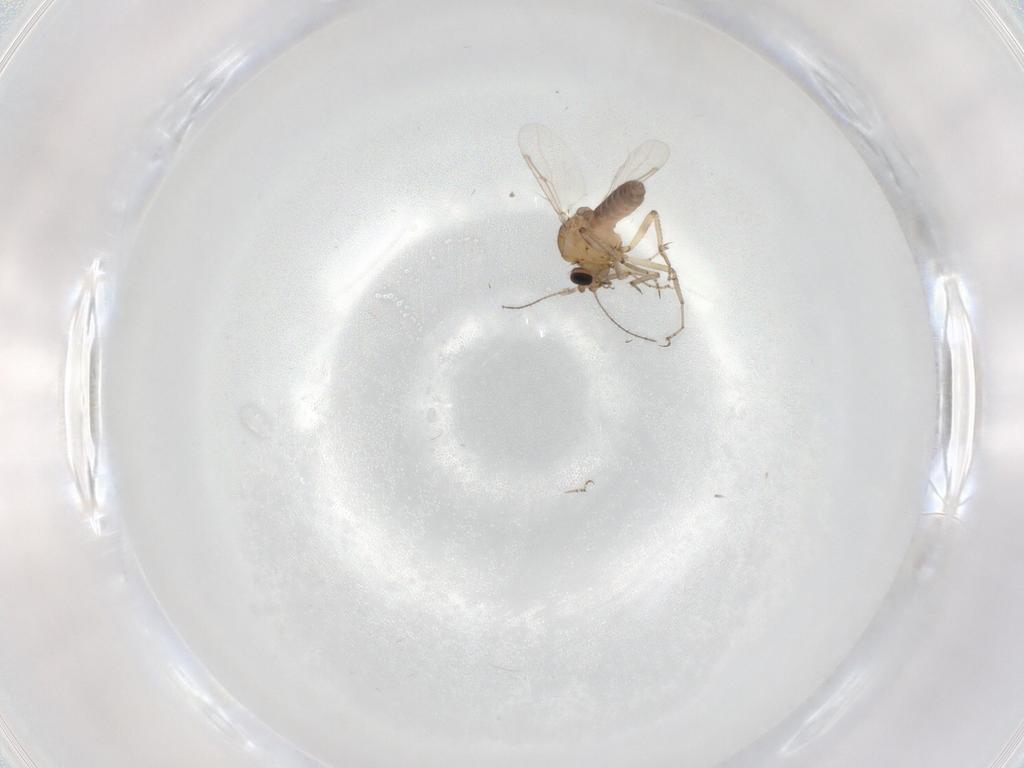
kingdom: Animalia
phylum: Arthropoda
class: Insecta
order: Diptera
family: Ceratopogonidae
